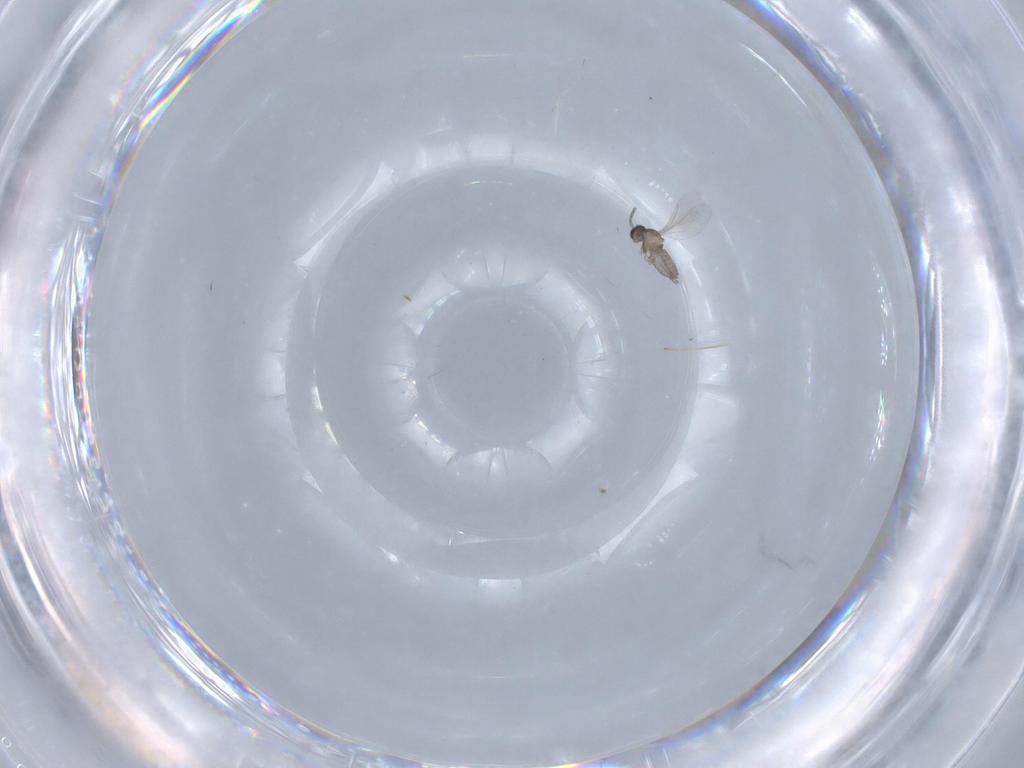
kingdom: Animalia
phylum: Arthropoda
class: Insecta
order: Diptera
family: Cecidomyiidae
